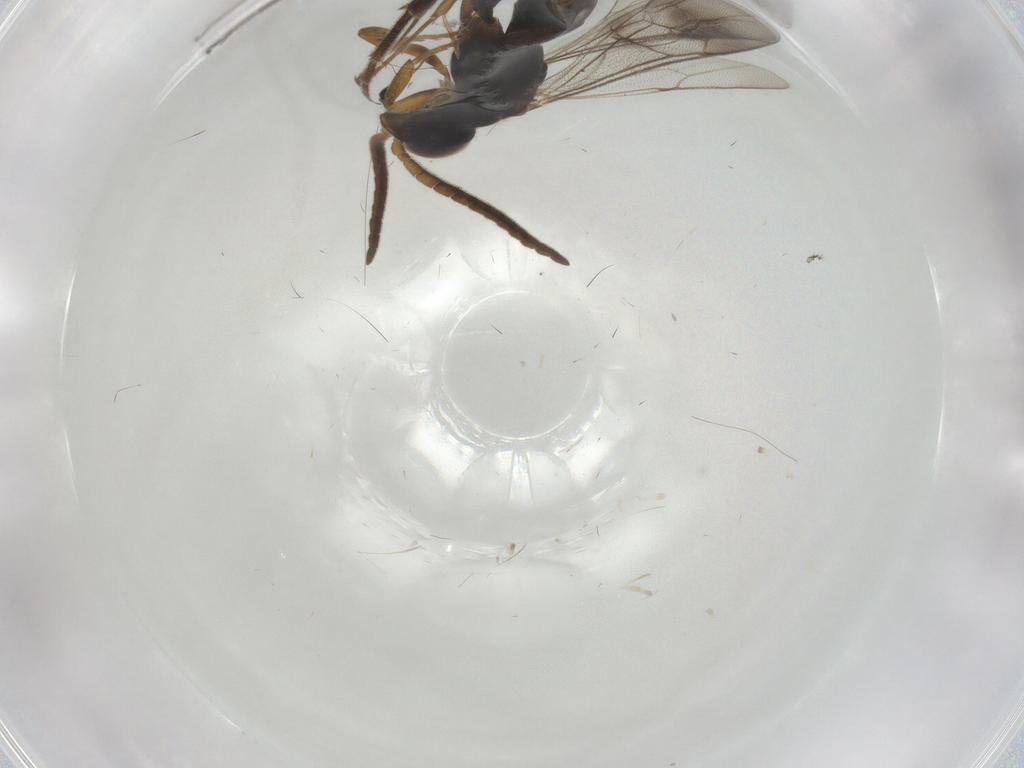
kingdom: Animalia
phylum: Arthropoda
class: Insecta
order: Hymenoptera
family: Pompilidae
